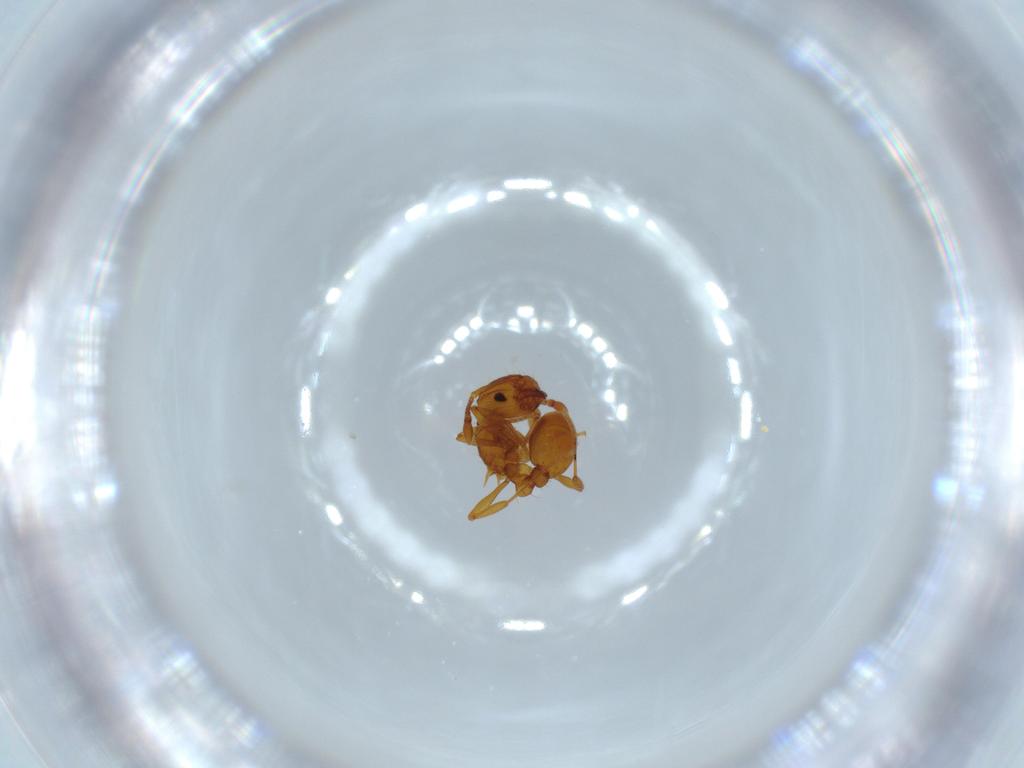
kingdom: Animalia
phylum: Arthropoda
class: Insecta
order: Hymenoptera
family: Formicidae
